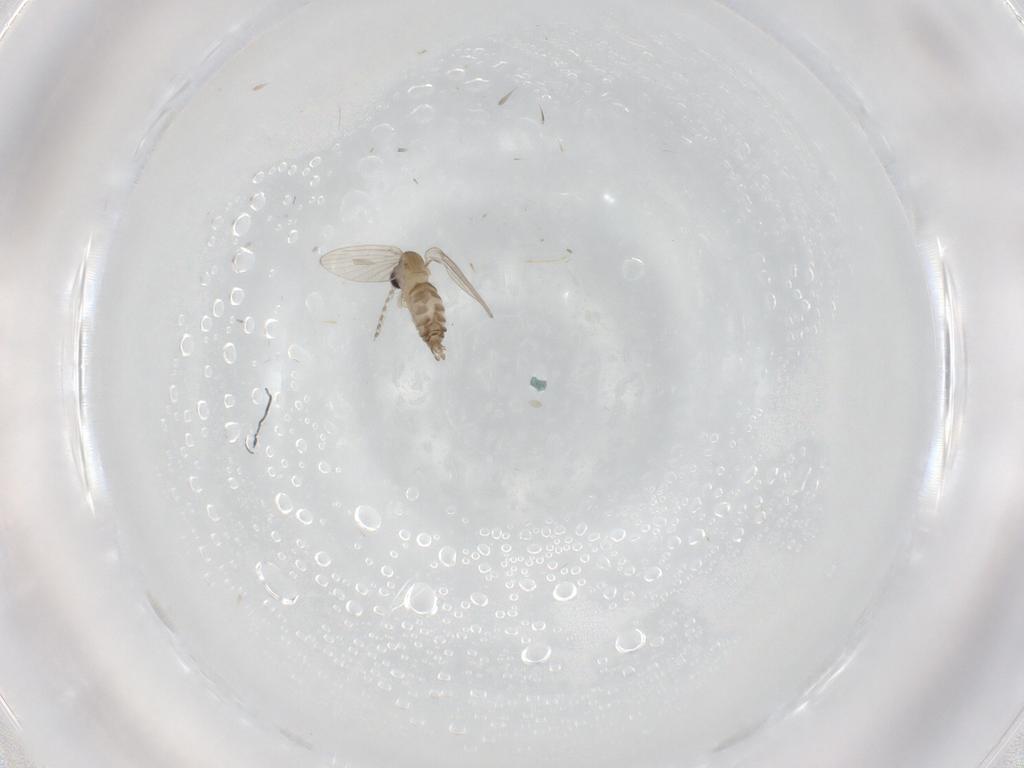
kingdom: Animalia
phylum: Arthropoda
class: Insecta
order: Diptera
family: Psychodidae
